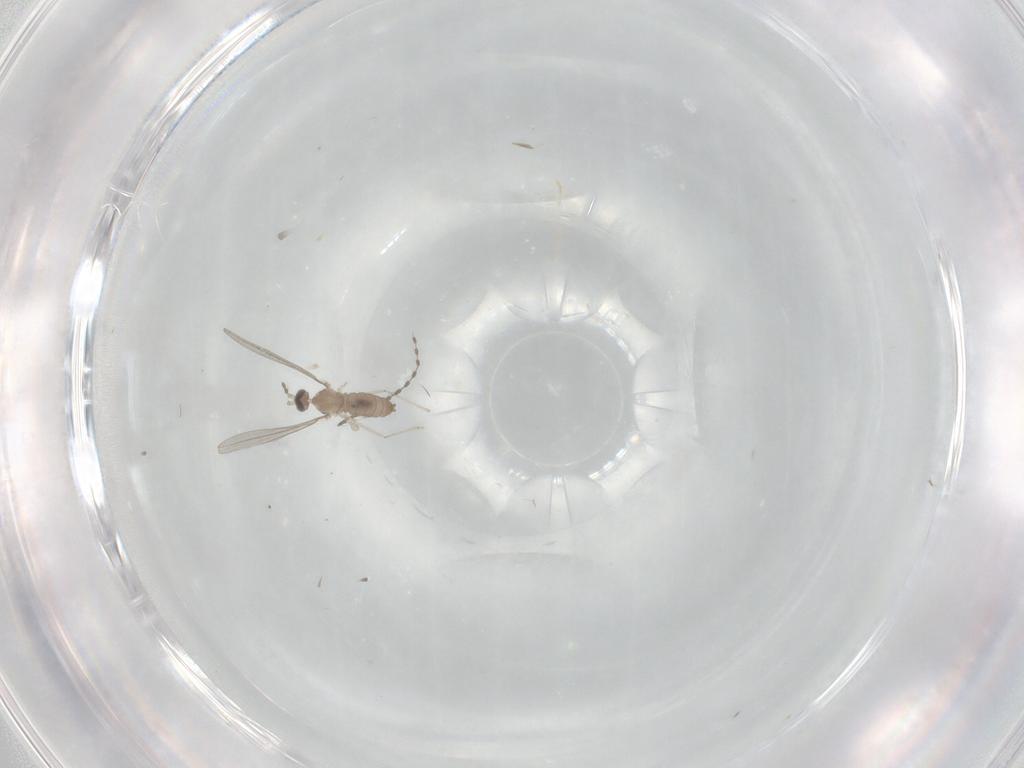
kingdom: Animalia
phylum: Arthropoda
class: Insecta
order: Diptera
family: Cecidomyiidae
